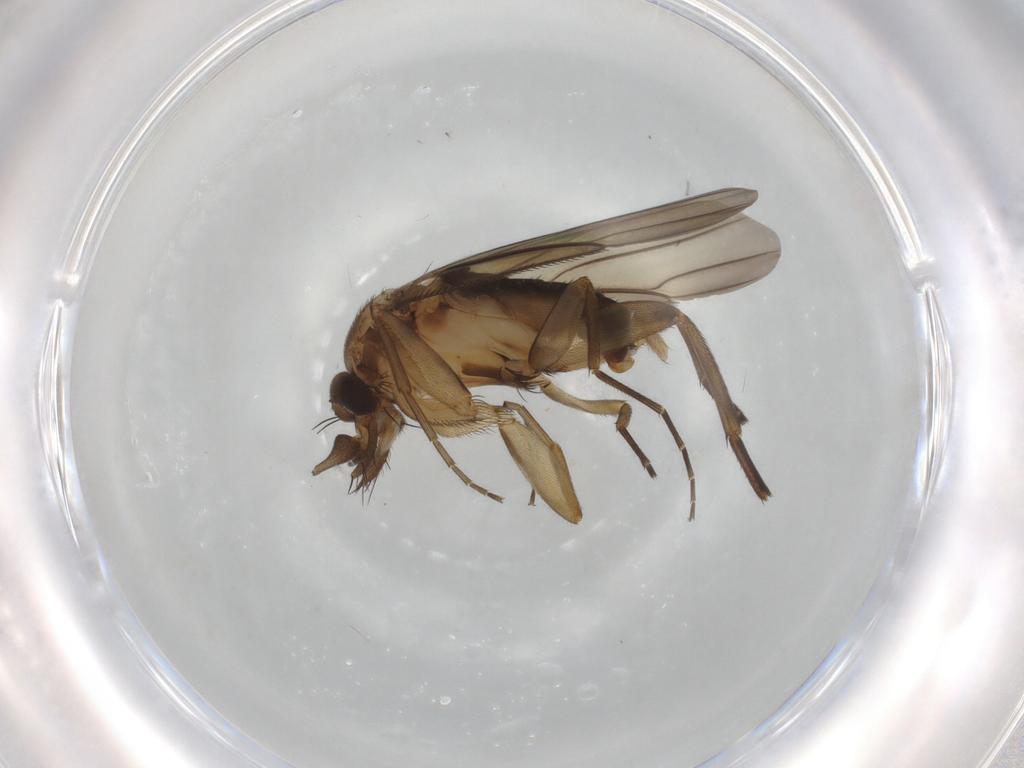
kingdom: Animalia
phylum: Arthropoda
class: Insecta
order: Diptera
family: Phoridae
